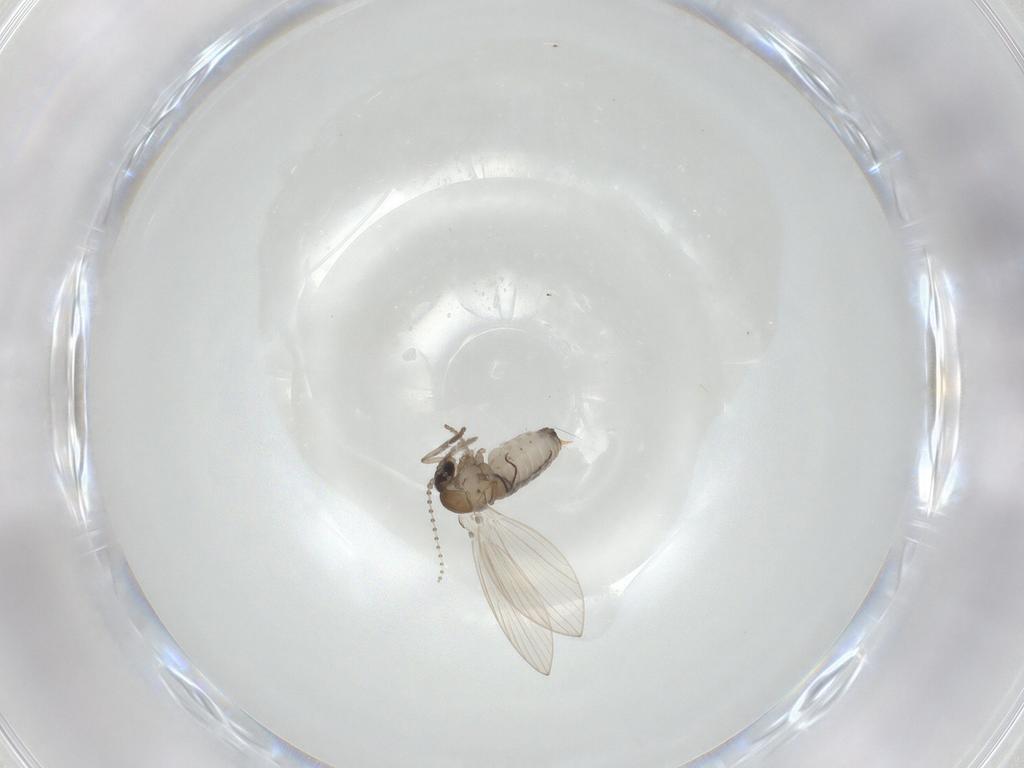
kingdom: Animalia
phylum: Arthropoda
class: Insecta
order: Diptera
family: Psychodidae
